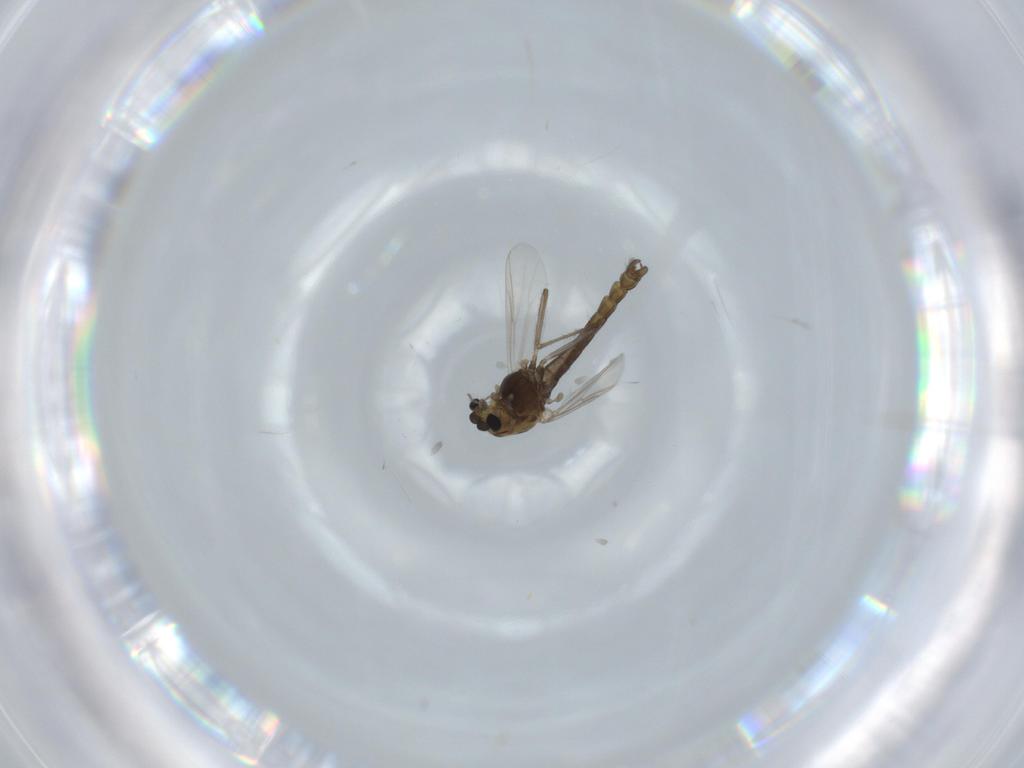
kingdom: Animalia
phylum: Arthropoda
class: Insecta
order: Diptera
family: Chironomidae
